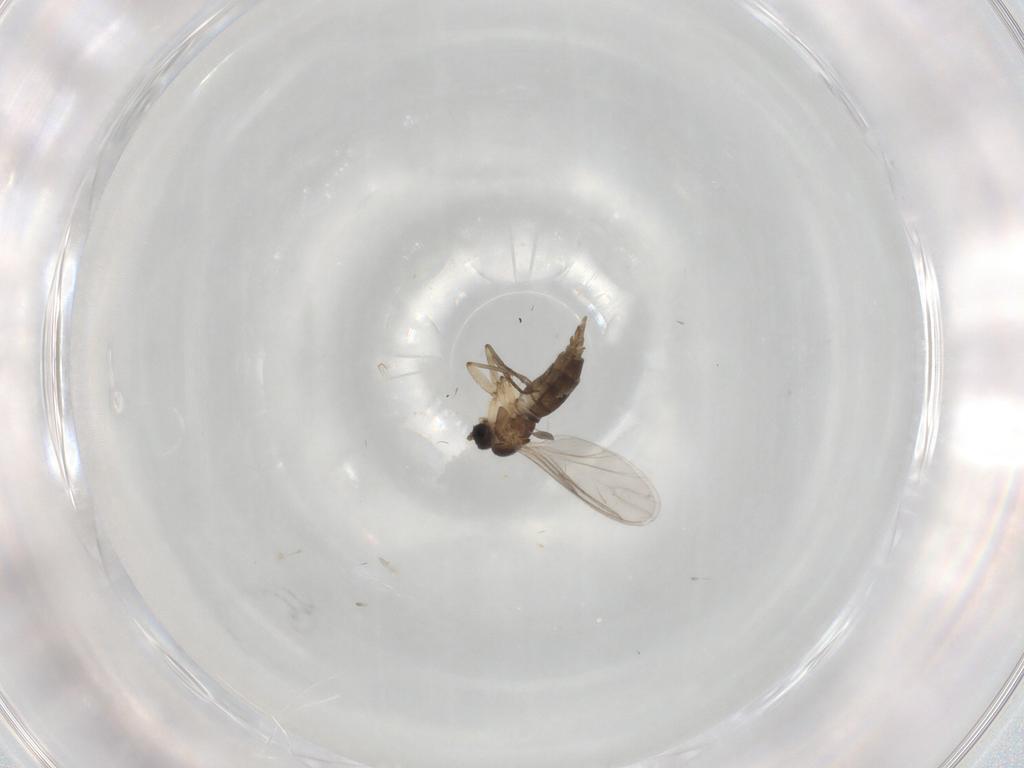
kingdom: Animalia
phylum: Arthropoda
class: Insecta
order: Diptera
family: Sciaridae
